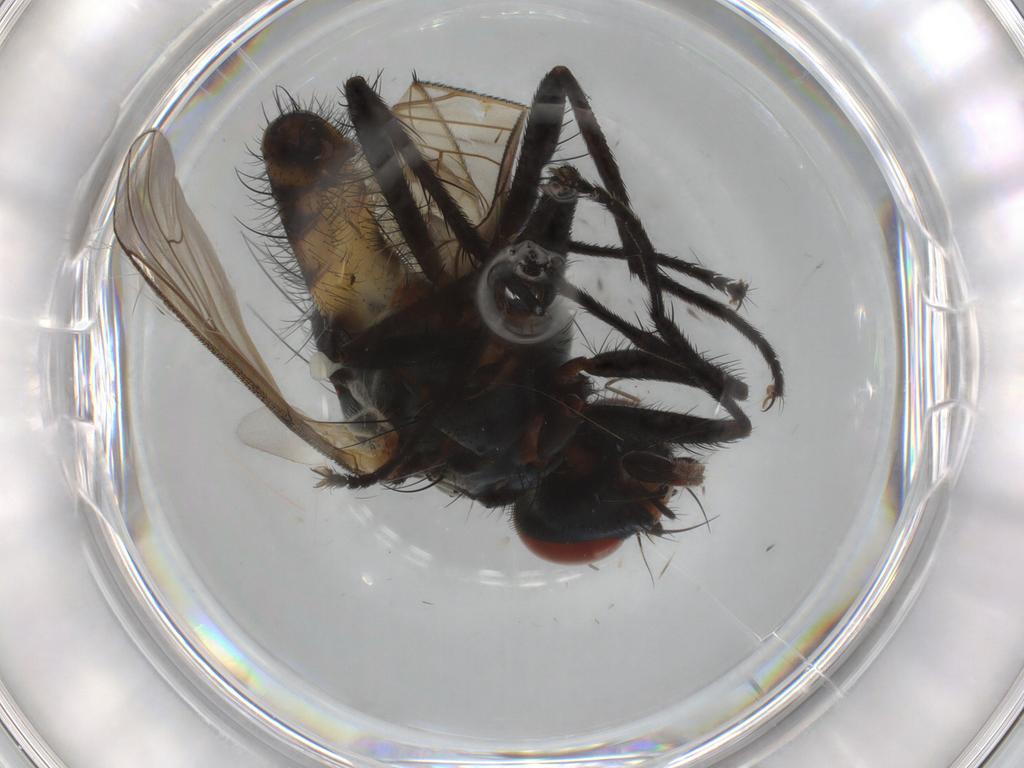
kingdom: Animalia
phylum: Arthropoda
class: Insecta
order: Diptera
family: Anthomyiidae
